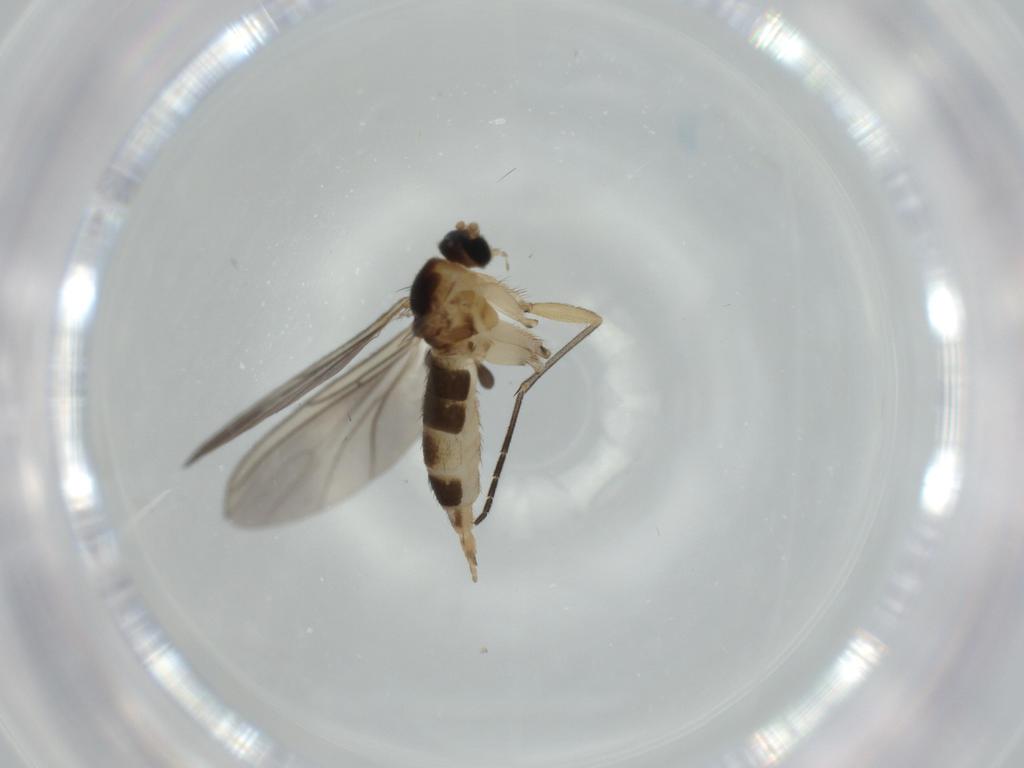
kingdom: Animalia
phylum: Arthropoda
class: Insecta
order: Diptera
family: Sciaridae
